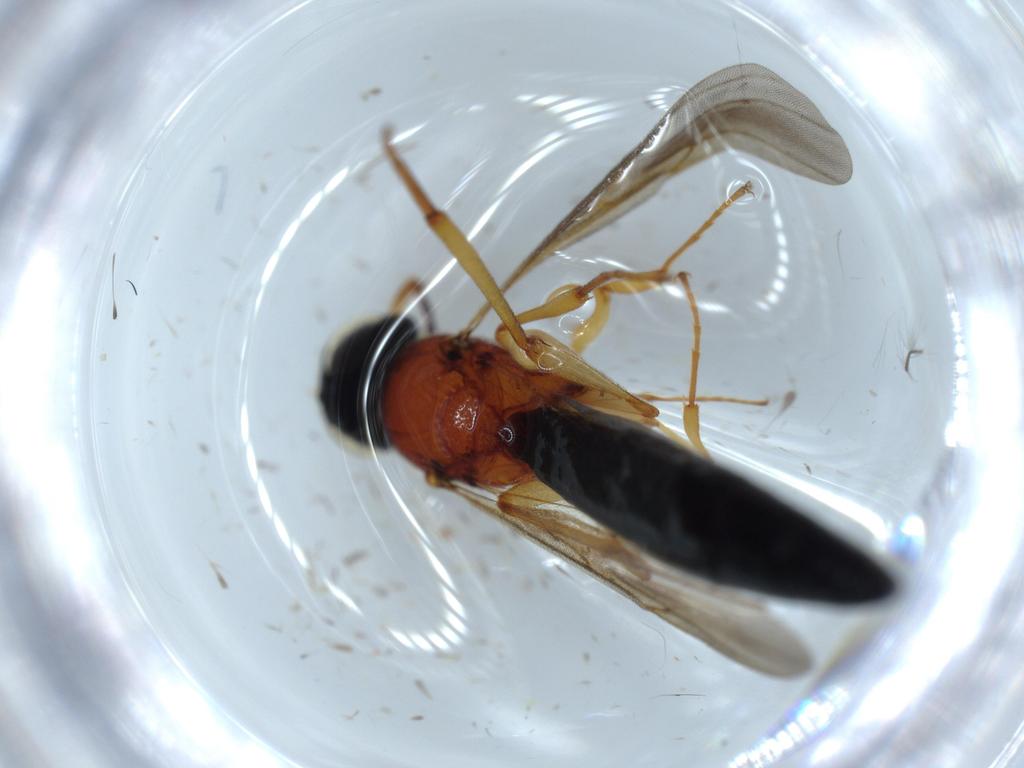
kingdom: Animalia
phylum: Arthropoda
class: Insecta
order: Hymenoptera
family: Scelionidae
